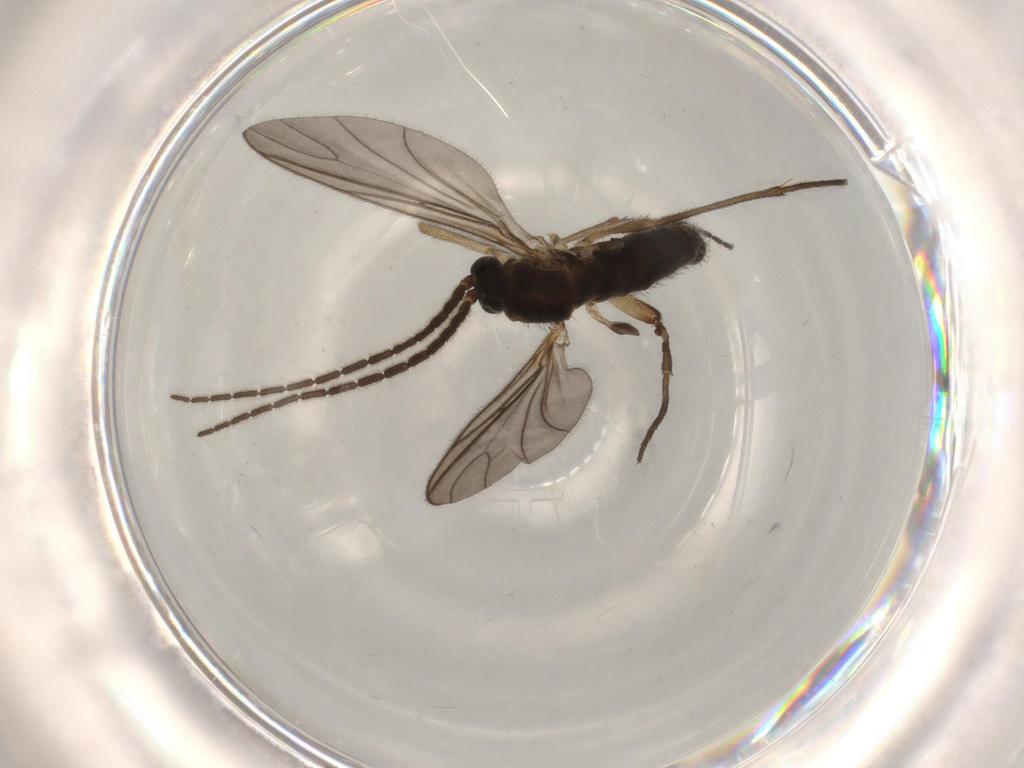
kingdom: Animalia
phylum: Arthropoda
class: Insecta
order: Diptera
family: Sciaridae
